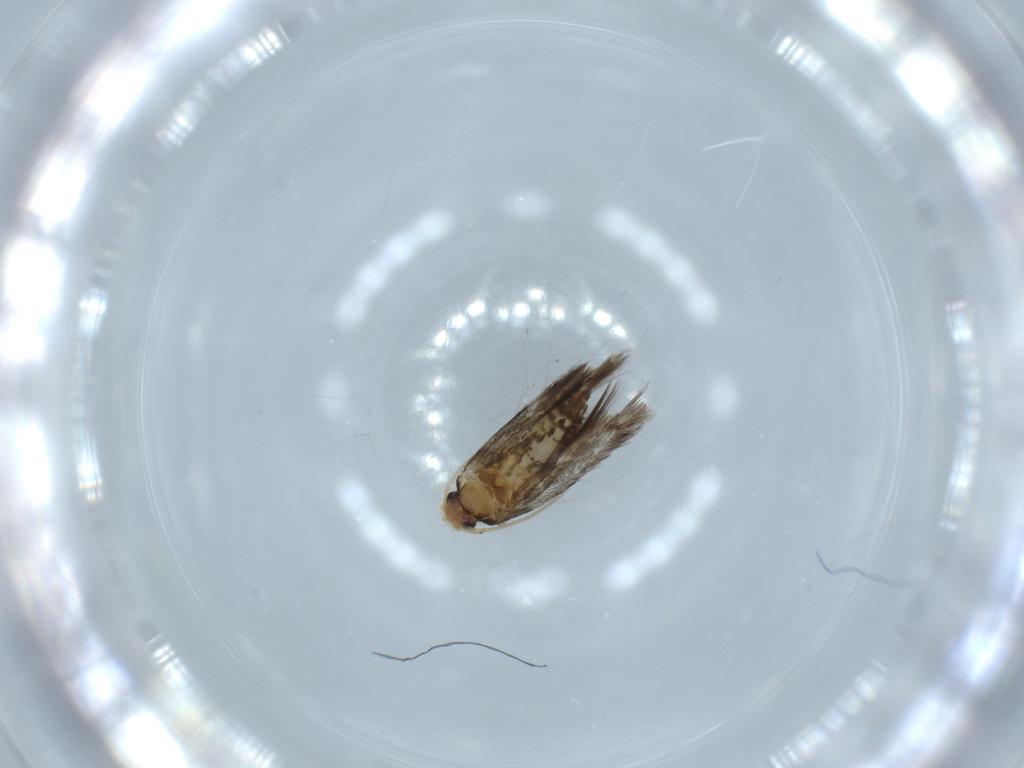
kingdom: Animalia
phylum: Arthropoda
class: Insecta
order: Lepidoptera
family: Nepticulidae
